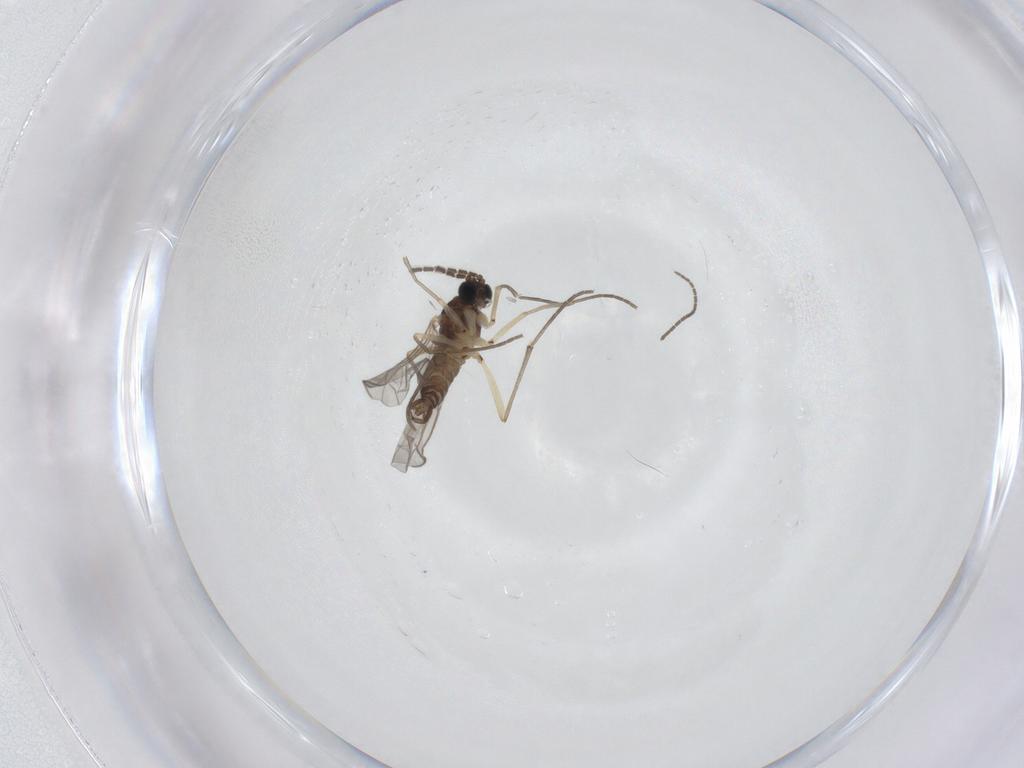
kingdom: Animalia
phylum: Arthropoda
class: Insecta
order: Diptera
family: Sciaridae
